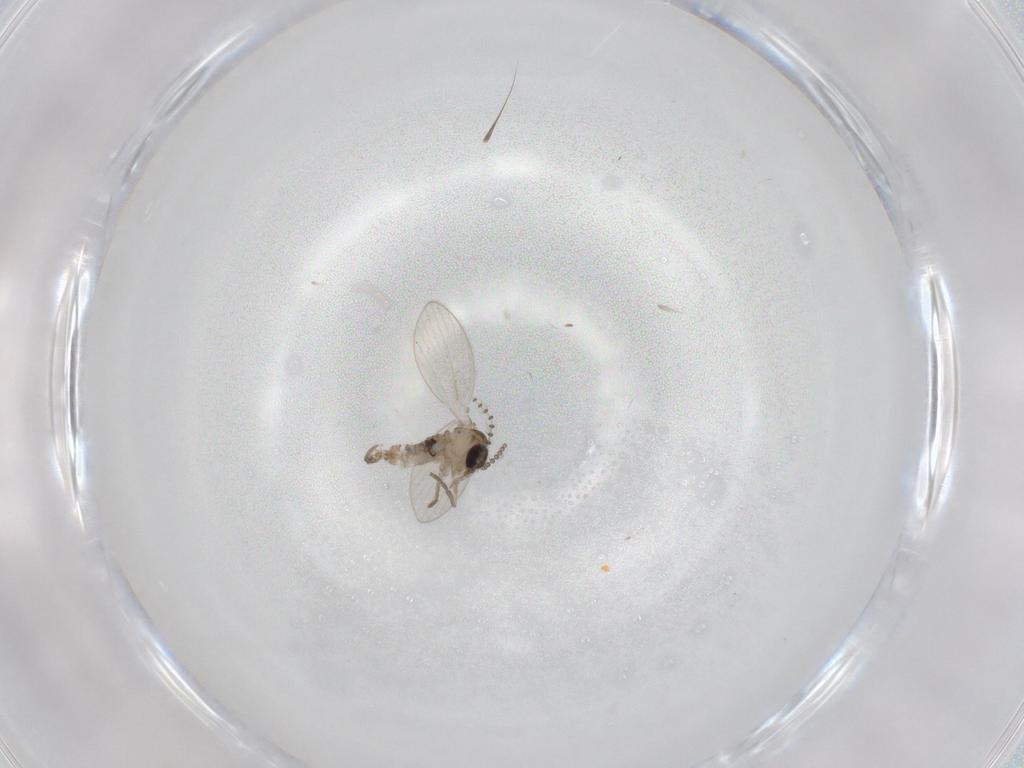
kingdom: Animalia
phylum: Arthropoda
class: Insecta
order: Diptera
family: Psychodidae
